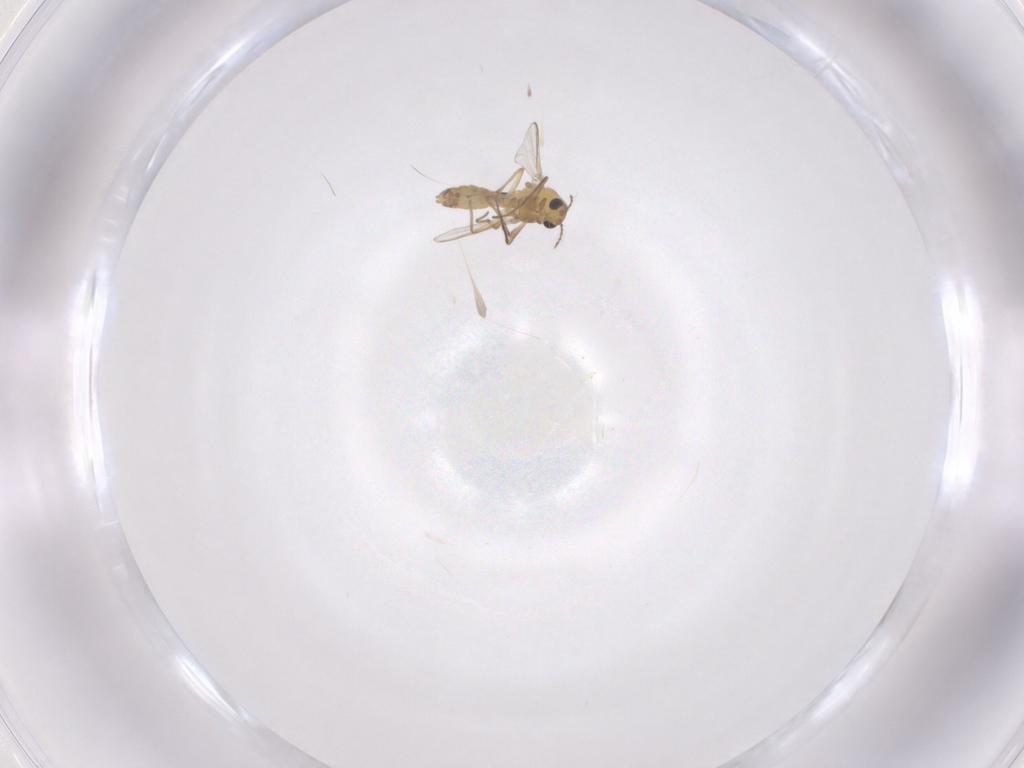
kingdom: Animalia
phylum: Arthropoda
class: Insecta
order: Diptera
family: Chironomidae
